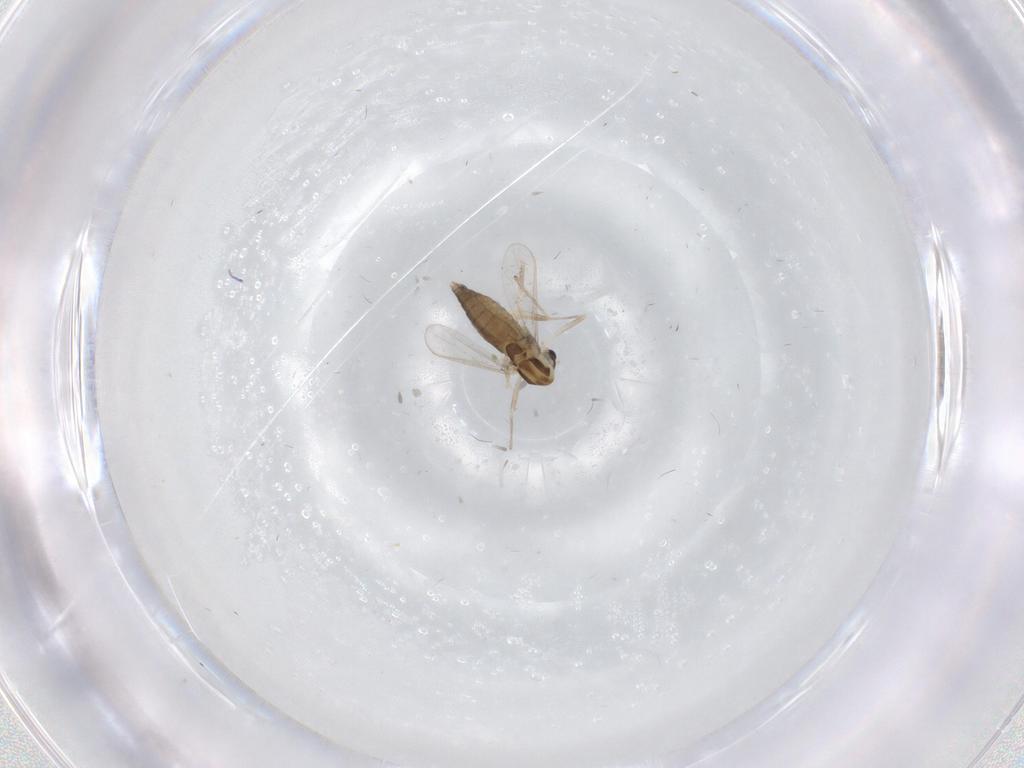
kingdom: Animalia
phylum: Arthropoda
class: Insecta
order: Diptera
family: Chironomidae
